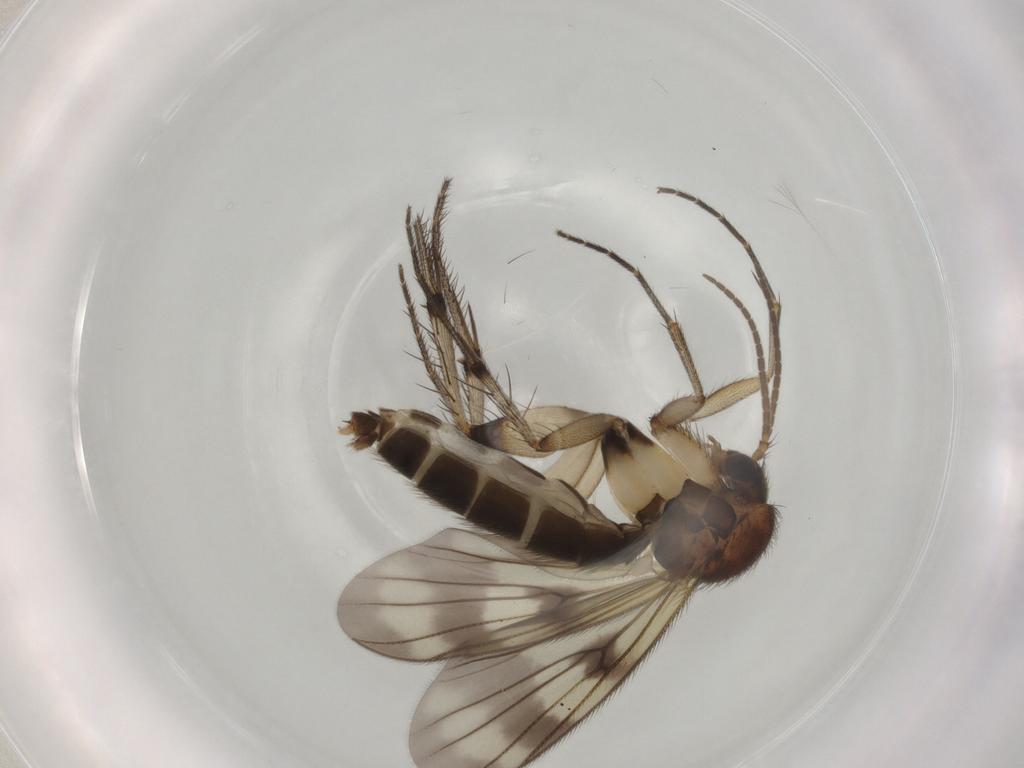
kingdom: Animalia
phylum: Arthropoda
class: Insecta
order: Diptera
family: Mycetophilidae
